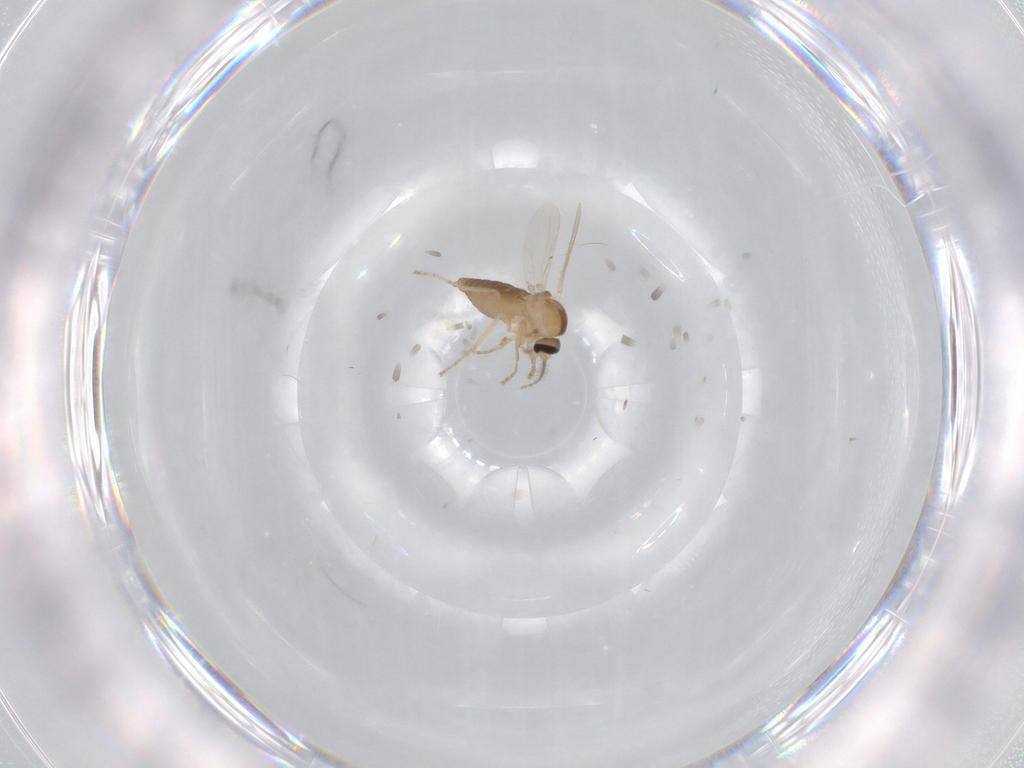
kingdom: Animalia
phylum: Arthropoda
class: Insecta
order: Diptera
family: Ceratopogonidae
